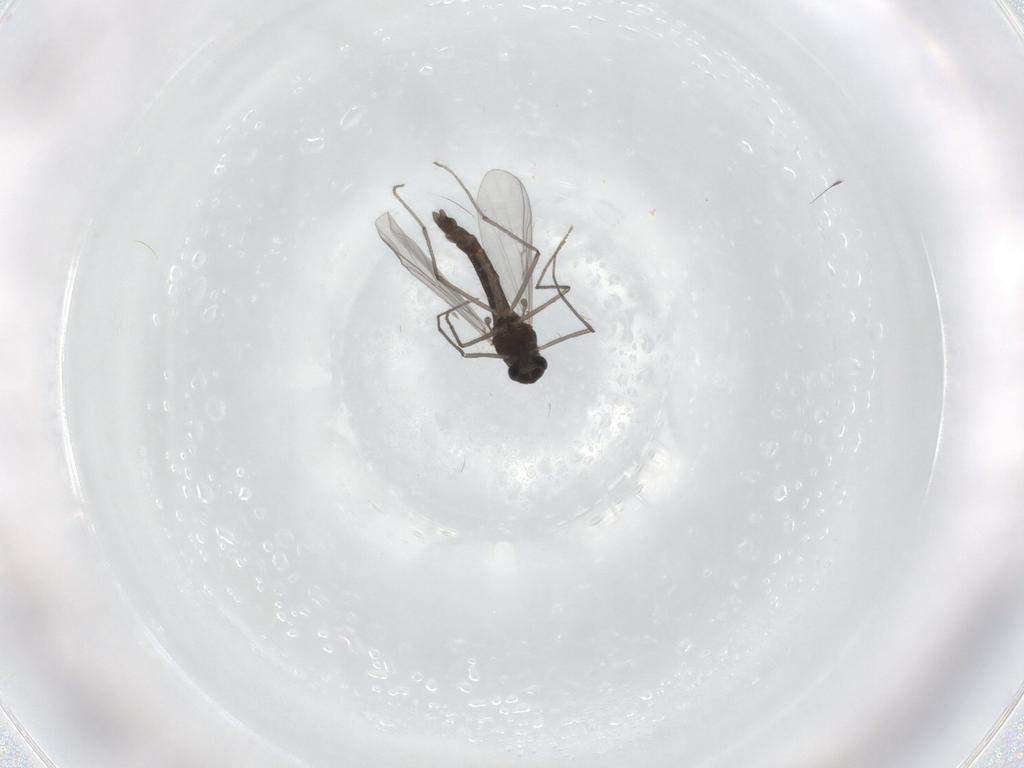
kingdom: Animalia
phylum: Arthropoda
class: Insecta
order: Diptera
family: Chironomidae
